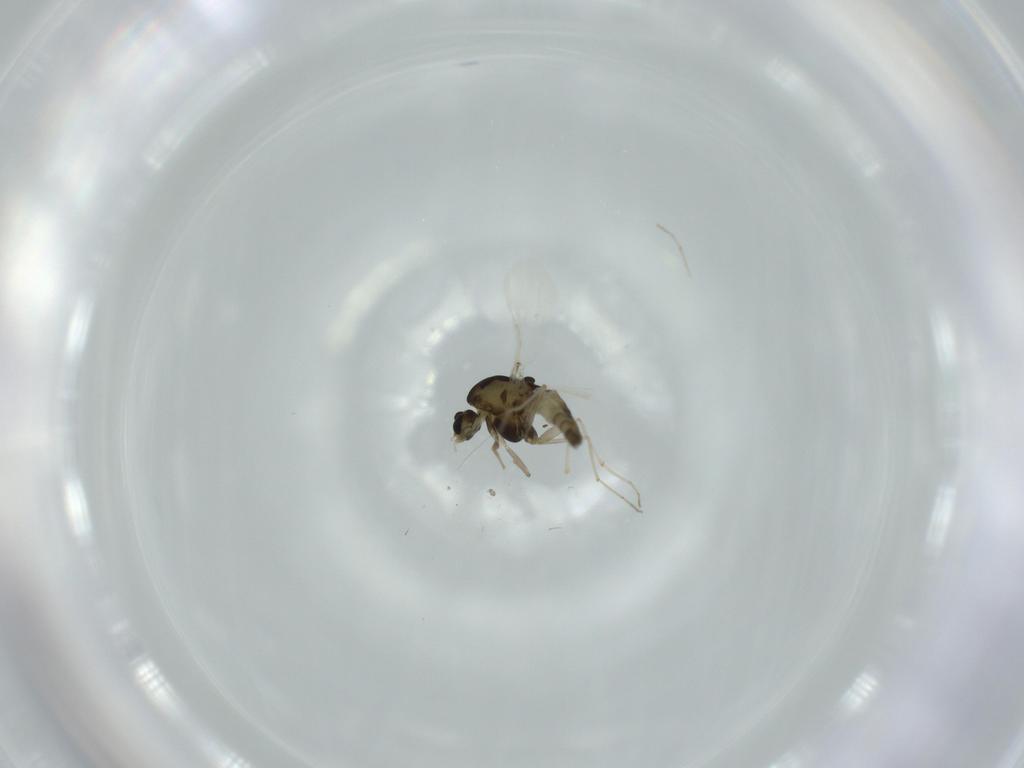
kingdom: Animalia
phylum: Arthropoda
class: Insecta
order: Diptera
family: Chironomidae
